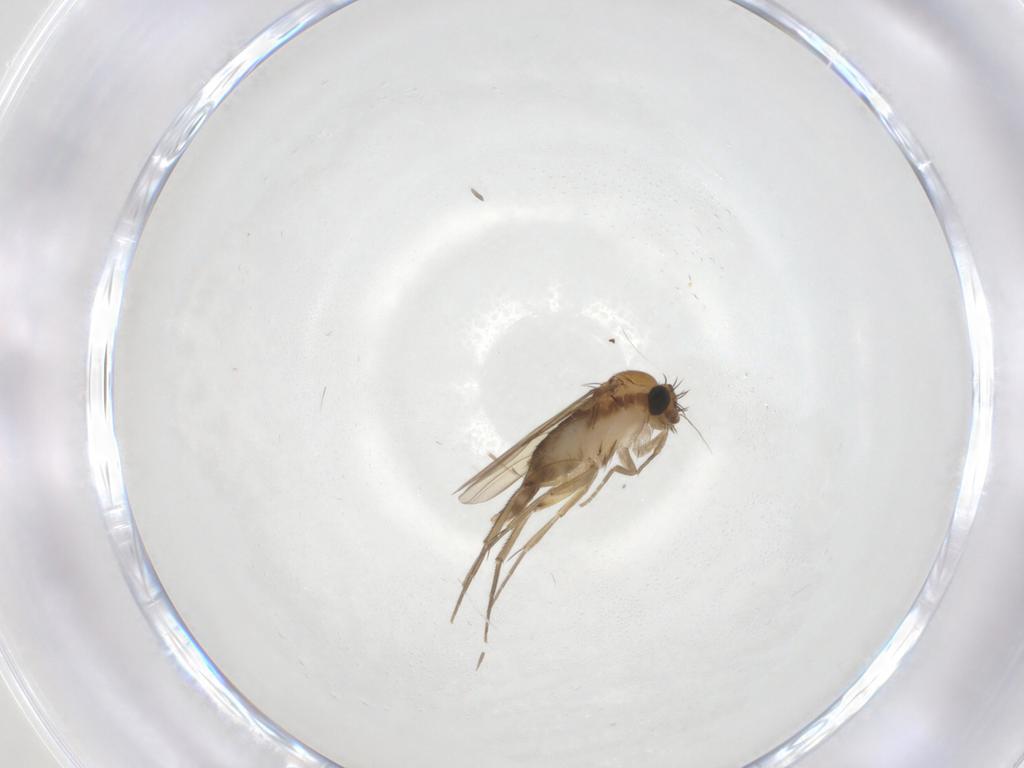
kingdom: Animalia
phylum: Arthropoda
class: Insecta
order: Diptera
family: Phoridae
